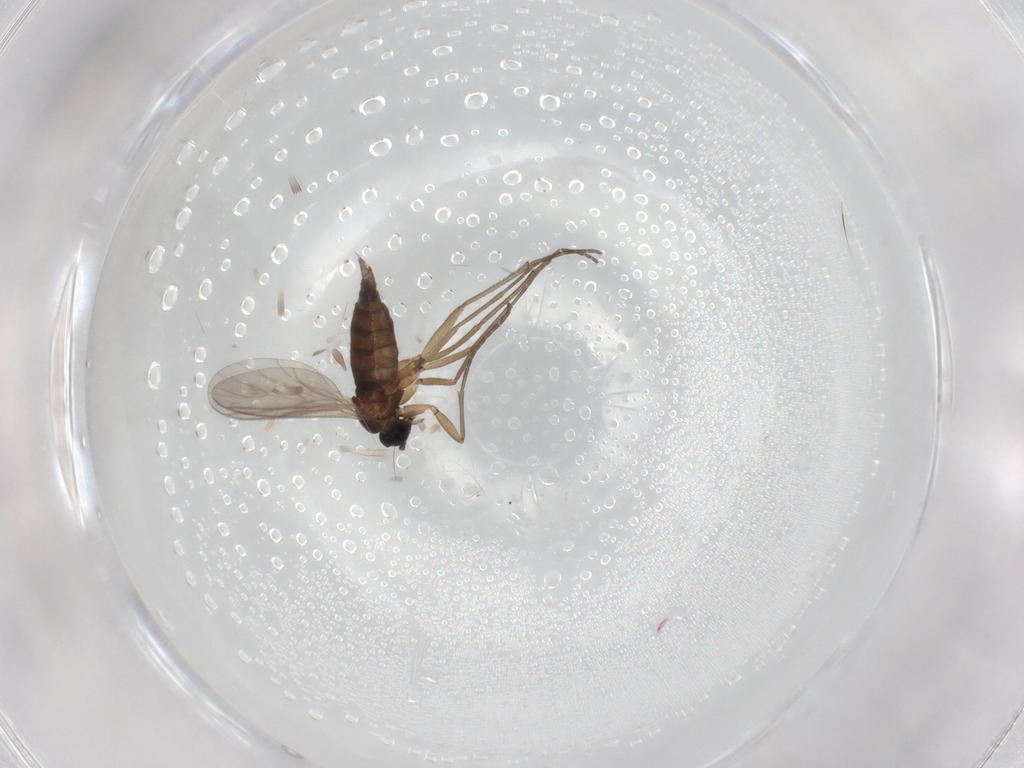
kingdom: Animalia
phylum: Arthropoda
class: Insecta
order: Diptera
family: Sciaridae
